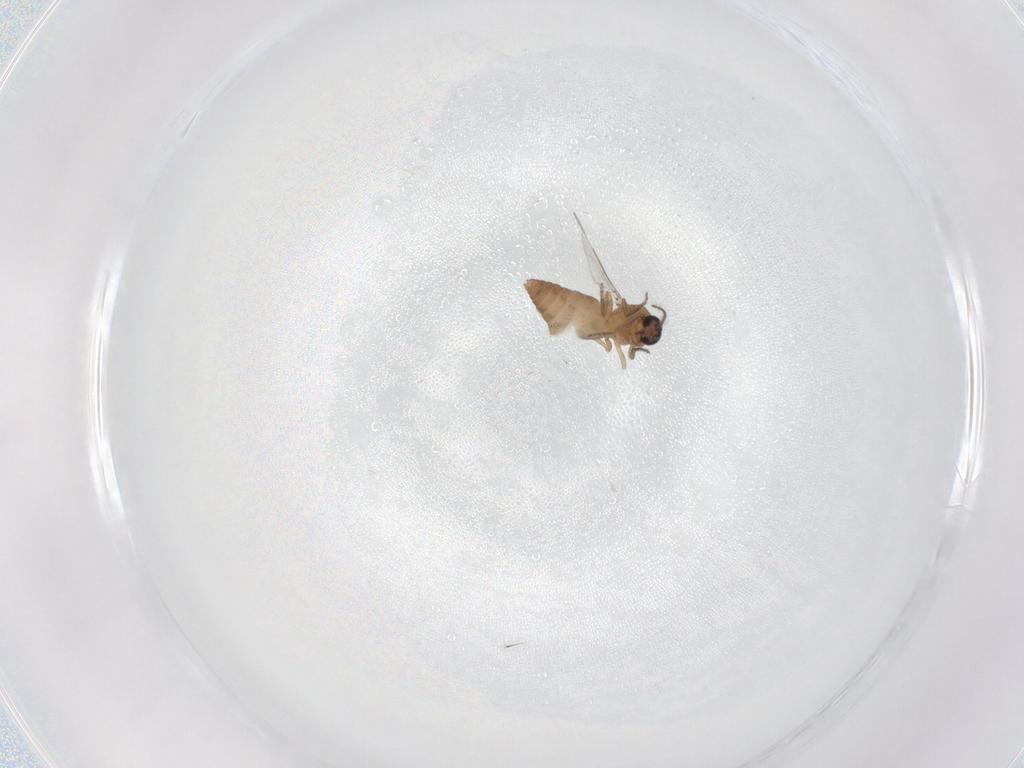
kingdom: Animalia
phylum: Arthropoda
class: Insecta
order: Diptera
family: Ceratopogonidae
